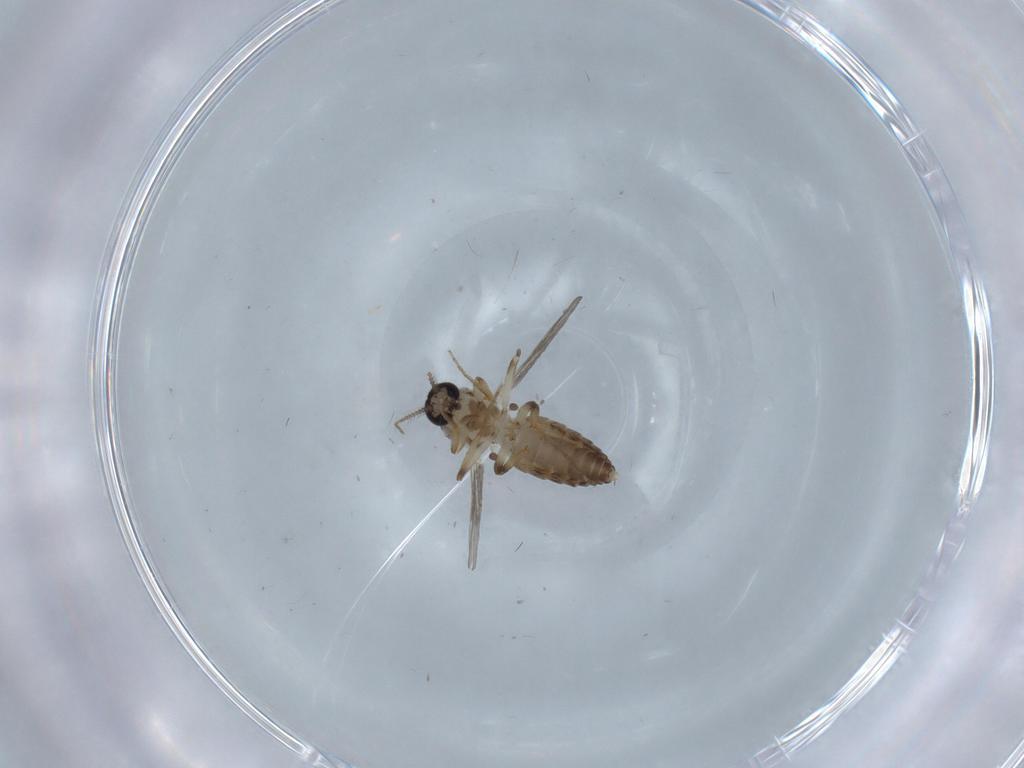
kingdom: Animalia
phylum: Arthropoda
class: Insecta
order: Diptera
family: Ceratopogonidae
